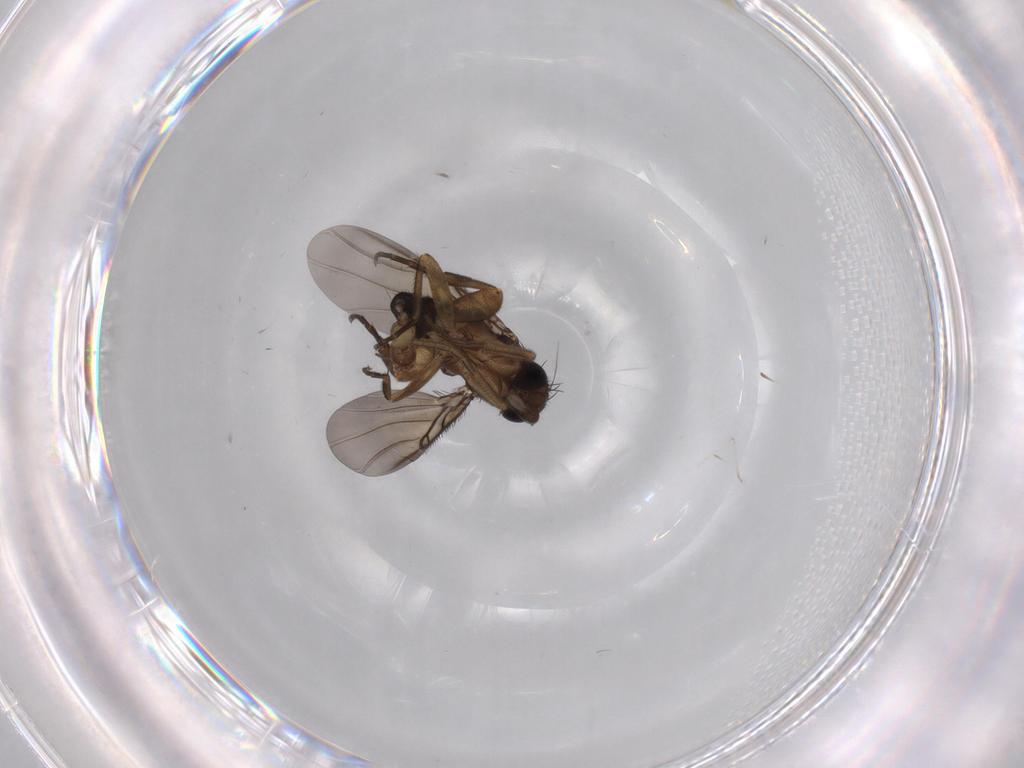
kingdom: Animalia
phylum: Arthropoda
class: Insecta
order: Diptera
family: Chironomidae
